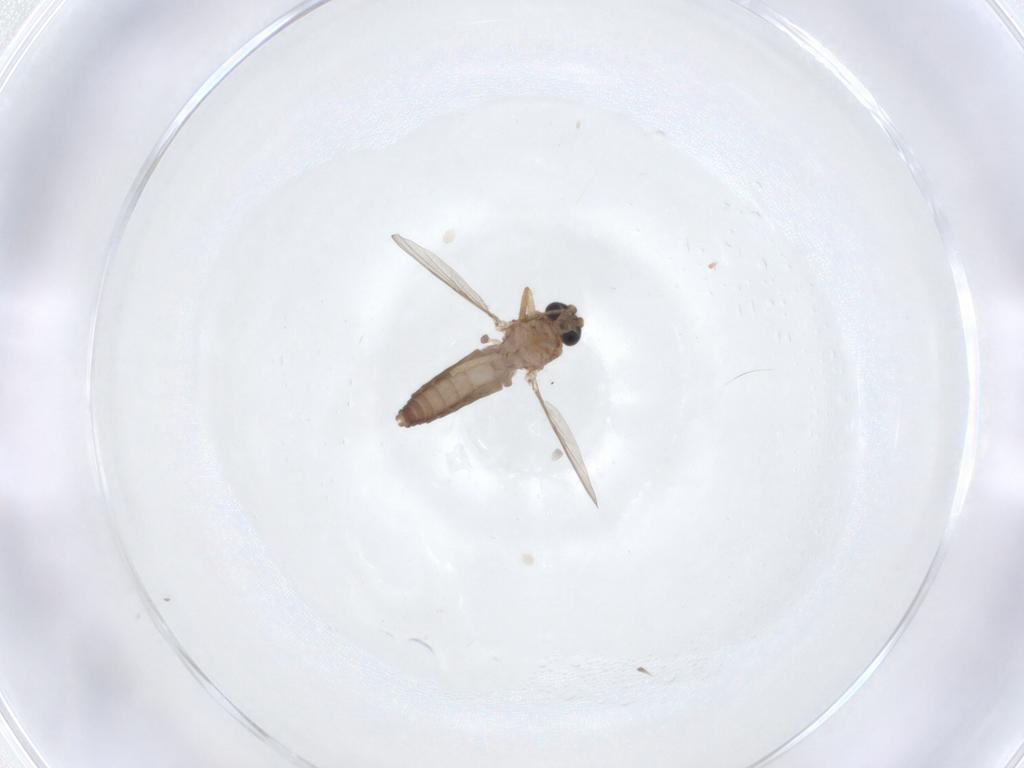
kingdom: Animalia
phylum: Arthropoda
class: Insecta
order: Diptera
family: Ceratopogonidae
